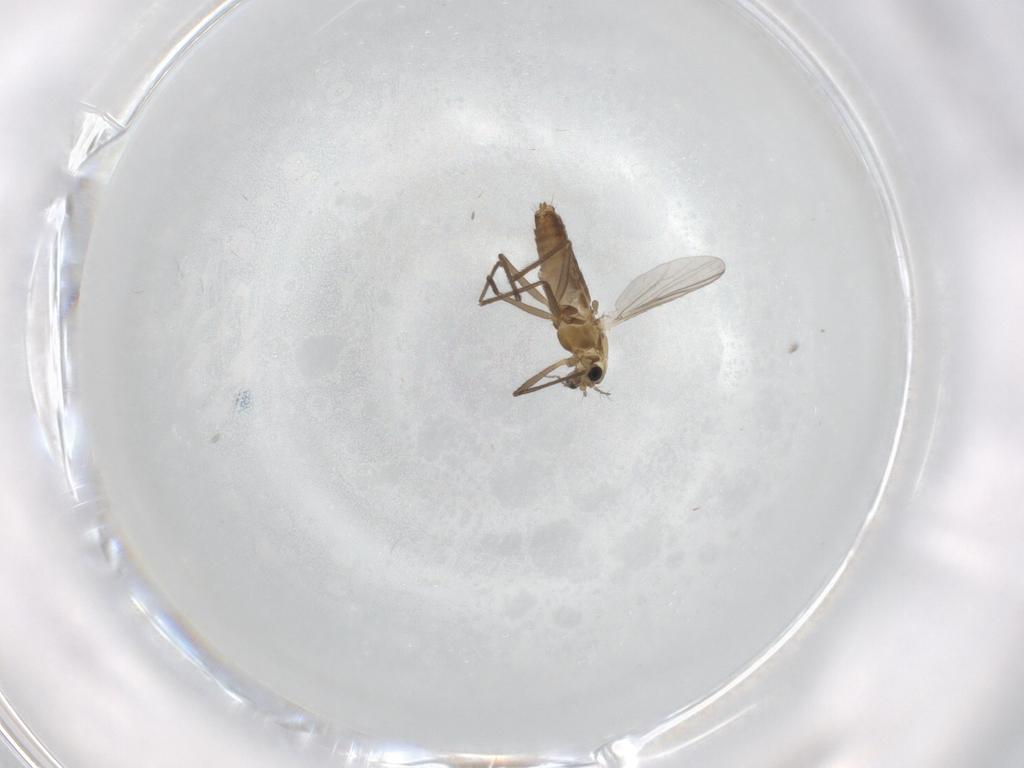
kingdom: Animalia
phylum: Arthropoda
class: Insecta
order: Diptera
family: Chironomidae
